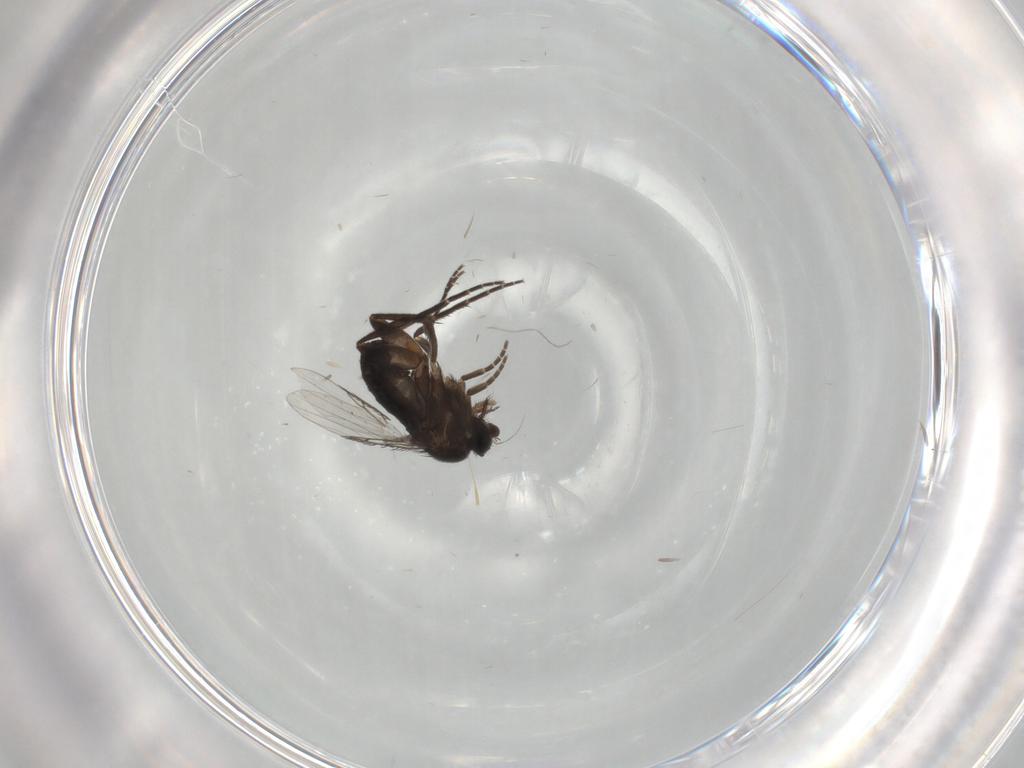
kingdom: Animalia
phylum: Arthropoda
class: Insecta
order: Diptera
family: Phoridae
